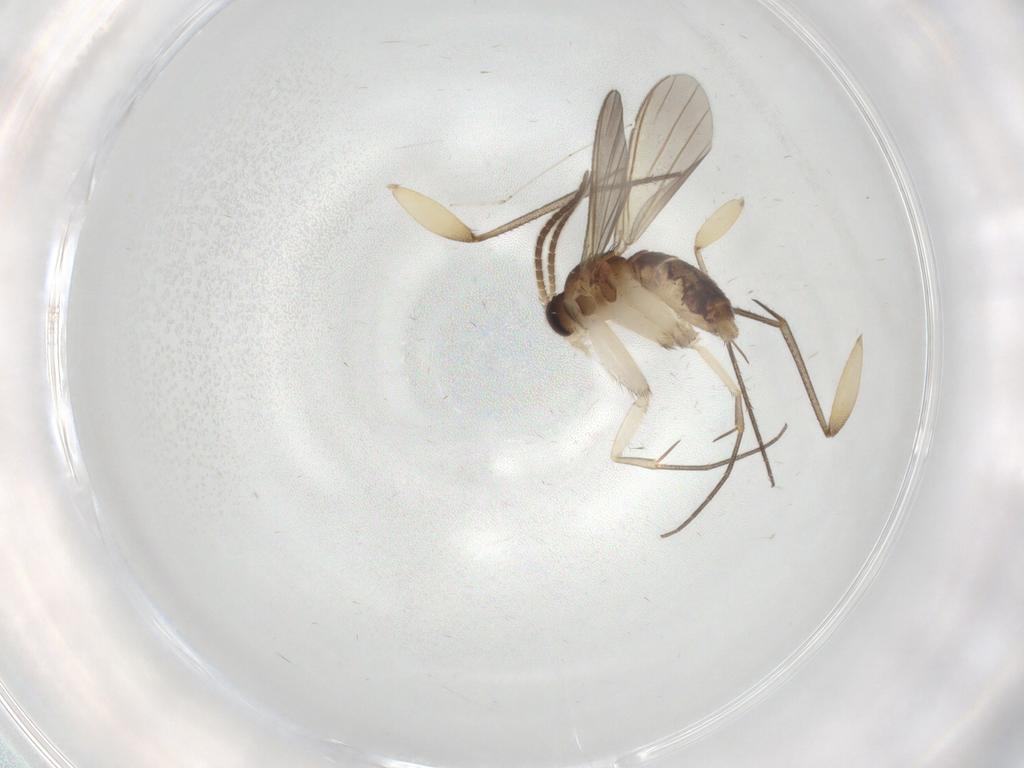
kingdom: Animalia
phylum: Arthropoda
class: Insecta
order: Diptera
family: Mycetophilidae
